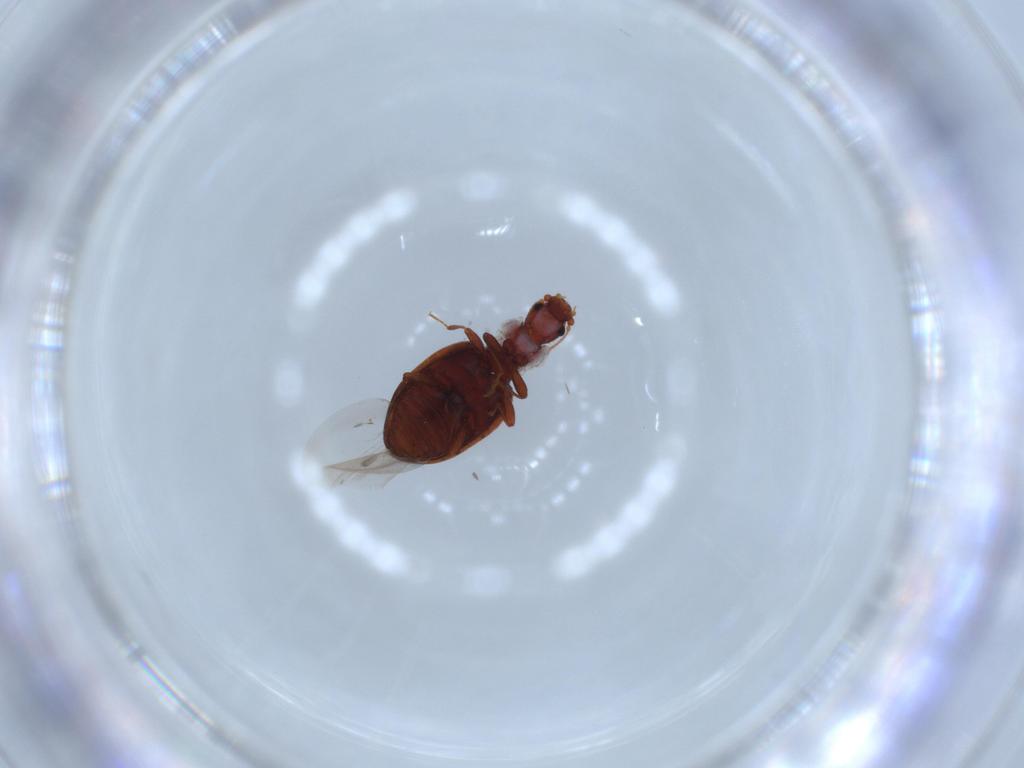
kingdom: Animalia
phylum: Arthropoda
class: Insecta
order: Coleoptera
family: Latridiidae
